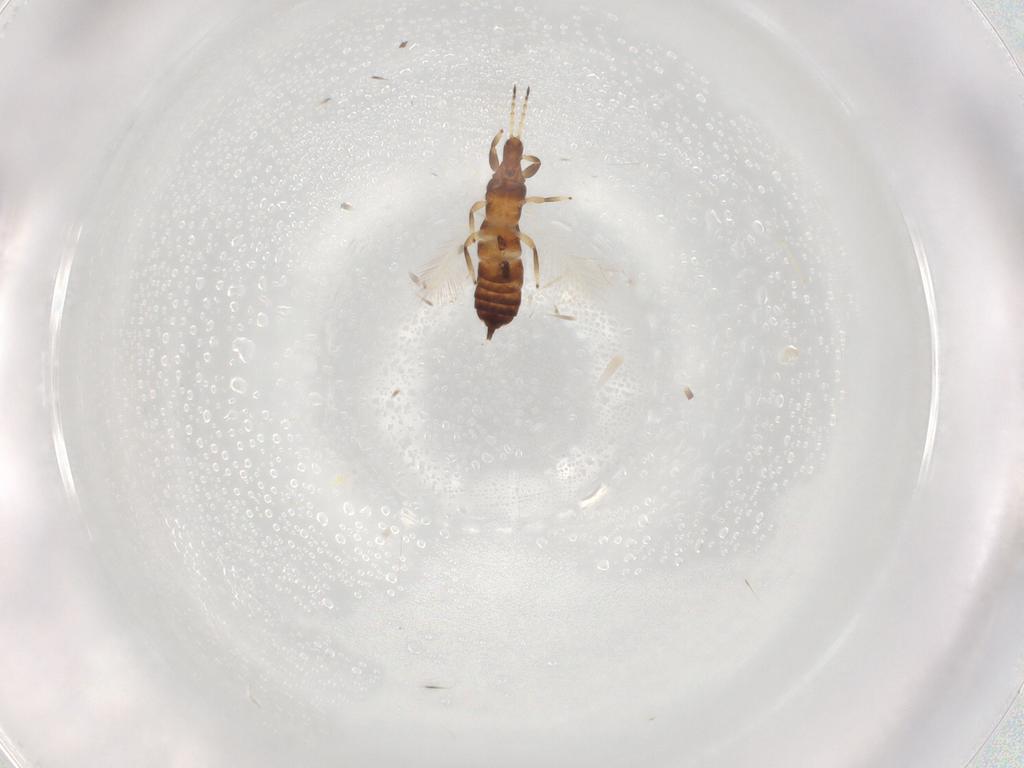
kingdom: Animalia
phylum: Arthropoda
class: Insecta
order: Thysanoptera
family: Phlaeothripidae
